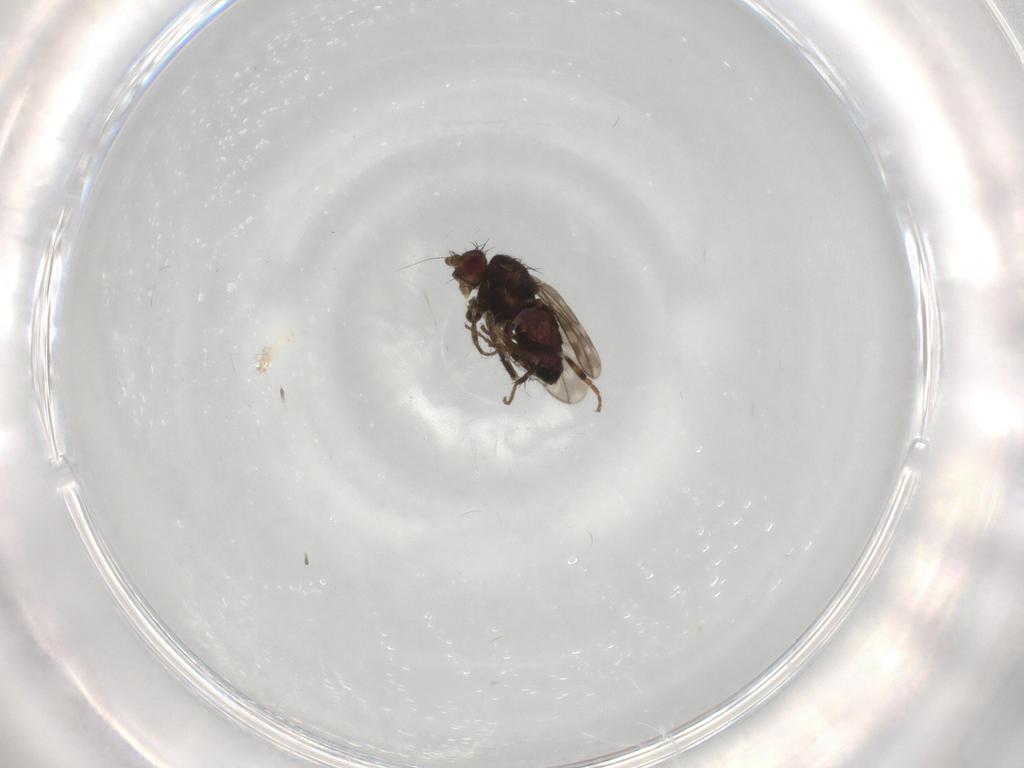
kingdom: Animalia
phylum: Arthropoda
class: Insecta
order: Diptera
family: Sphaeroceridae
